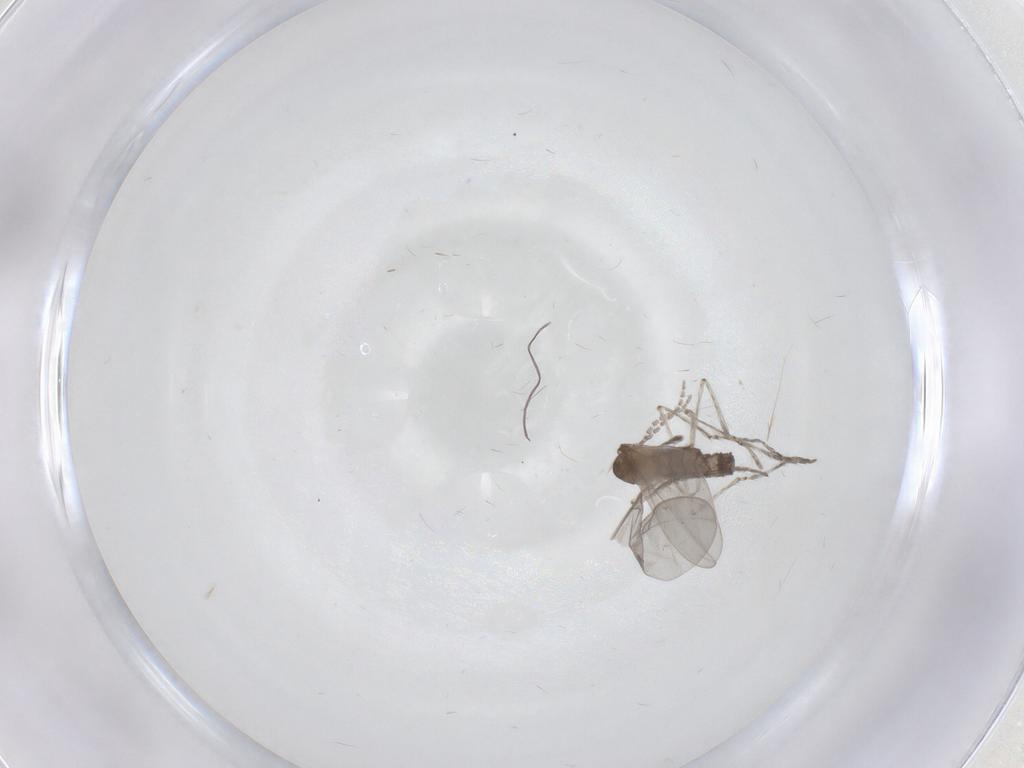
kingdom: Animalia
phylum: Arthropoda
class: Insecta
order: Diptera
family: Cecidomyiidae
